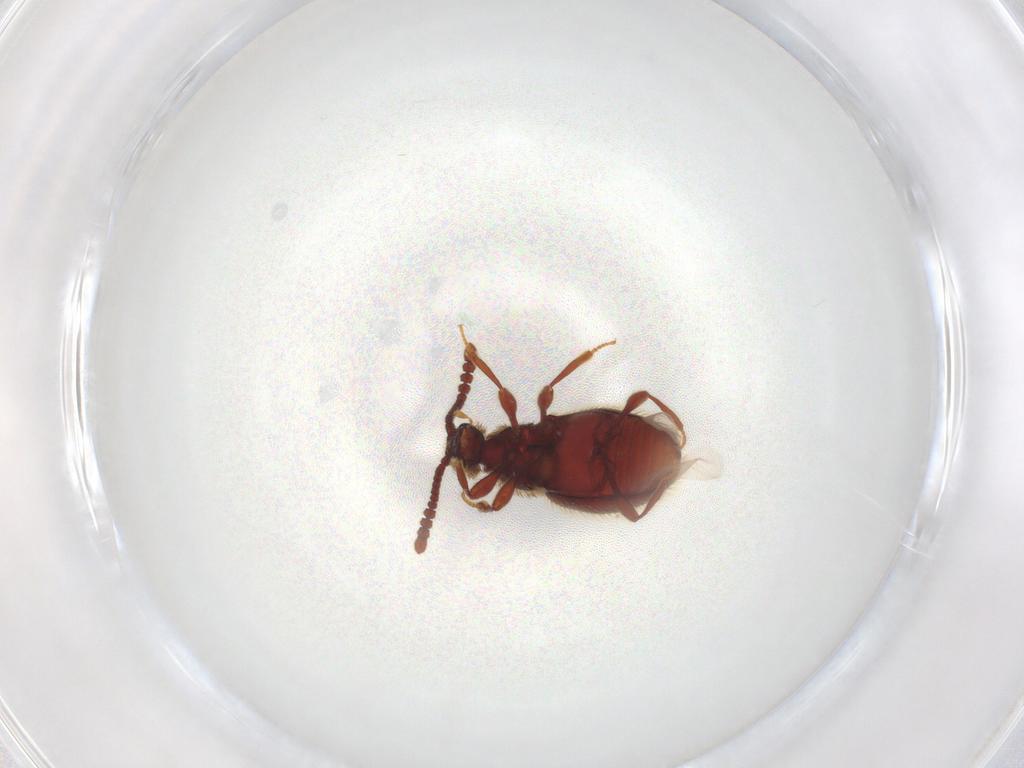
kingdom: Animalia
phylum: Arthropoda
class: Insecta
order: Coleoptera
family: Staphylinidae
